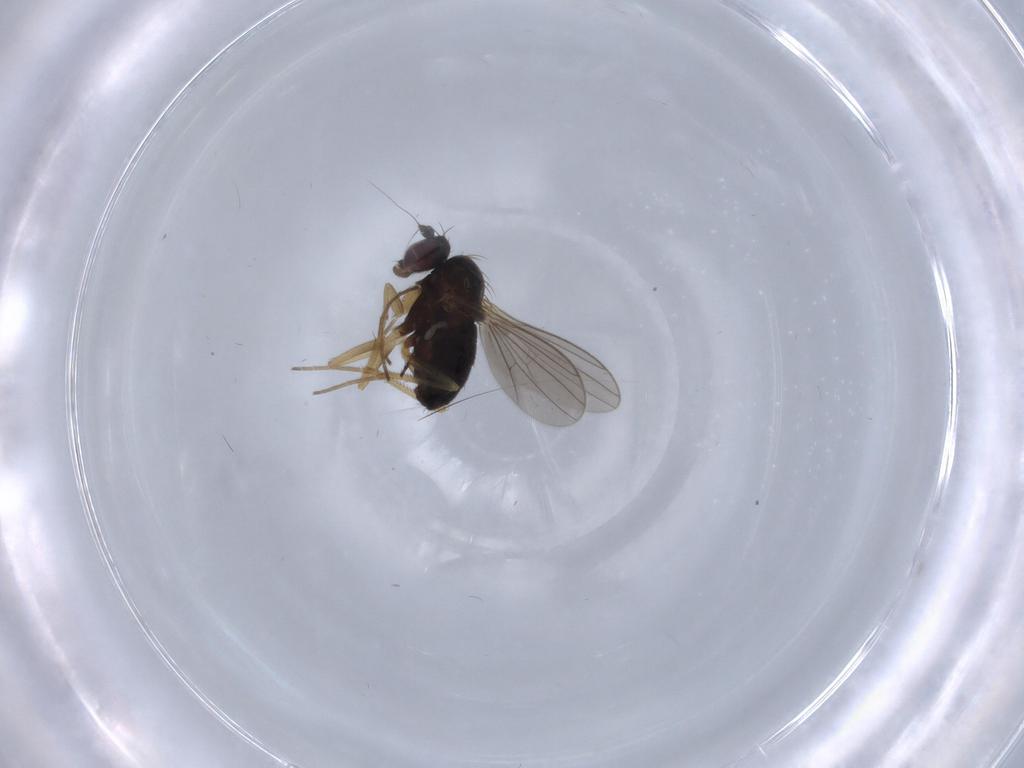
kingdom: Animalia
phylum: Arthropoda
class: Insecta
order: Diptera
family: Dolichopodidae
